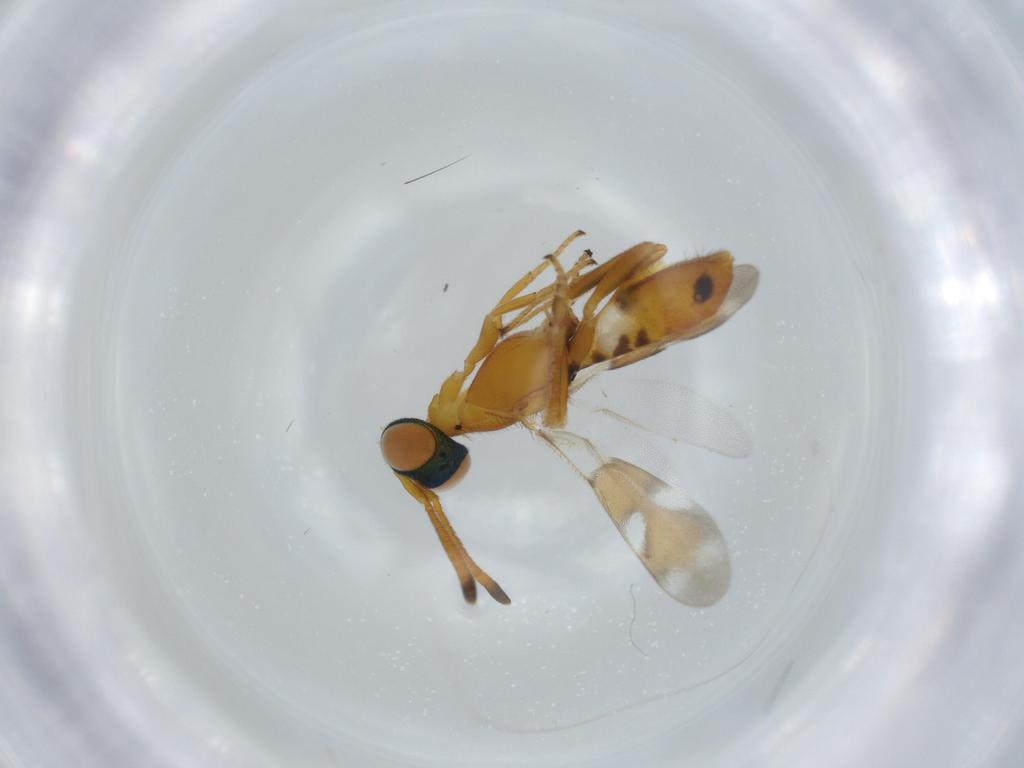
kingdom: Animalia
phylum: Arthropoda
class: Insecta
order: Hymenoptera
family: Eupelmidae
